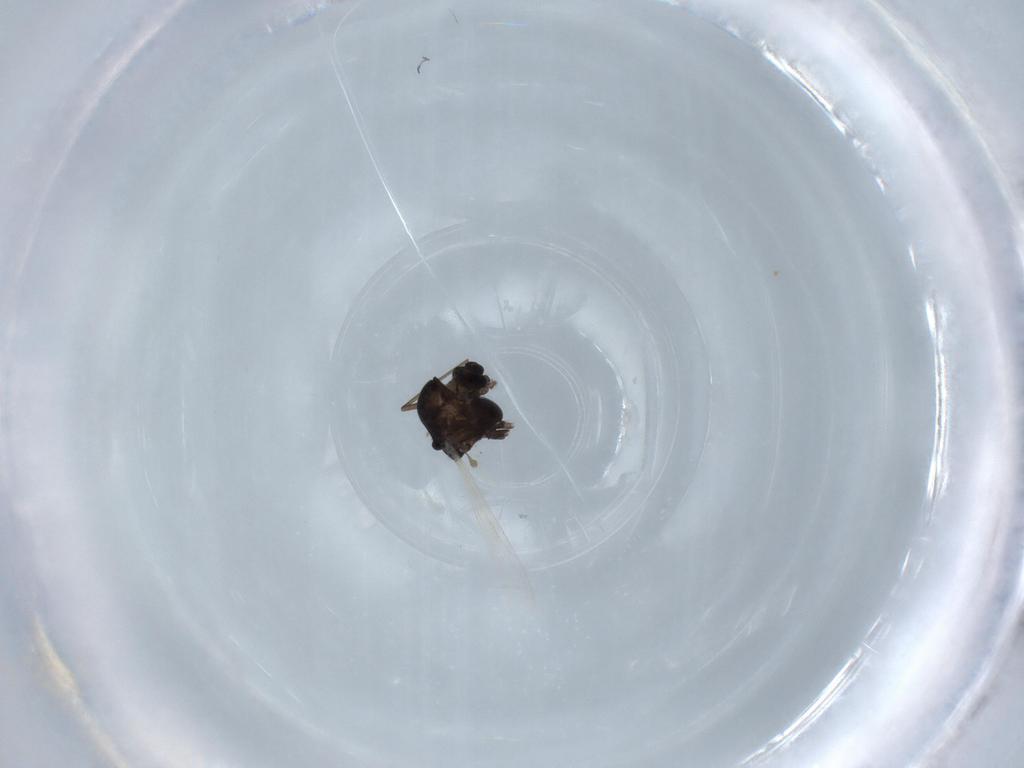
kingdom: Animalia
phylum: Arthropoda
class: Insecta
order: Diptera
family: Chironomidae
